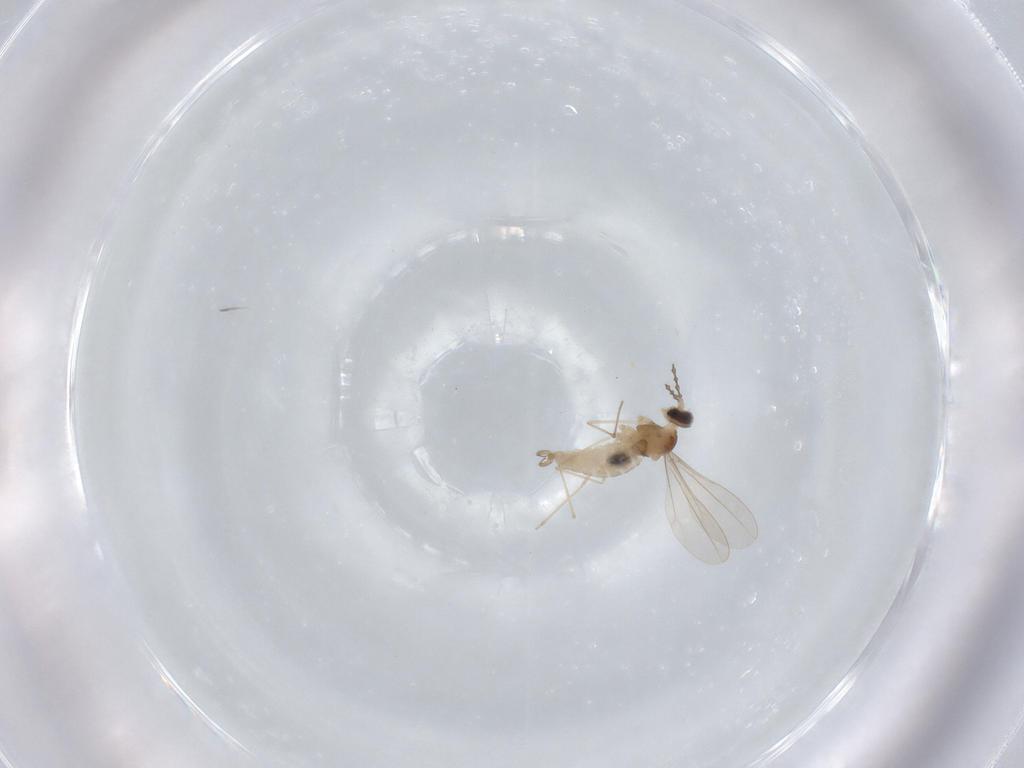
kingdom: Animalia
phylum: Arthropoda
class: Insecta
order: Diptera
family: Cecidomyiidae
